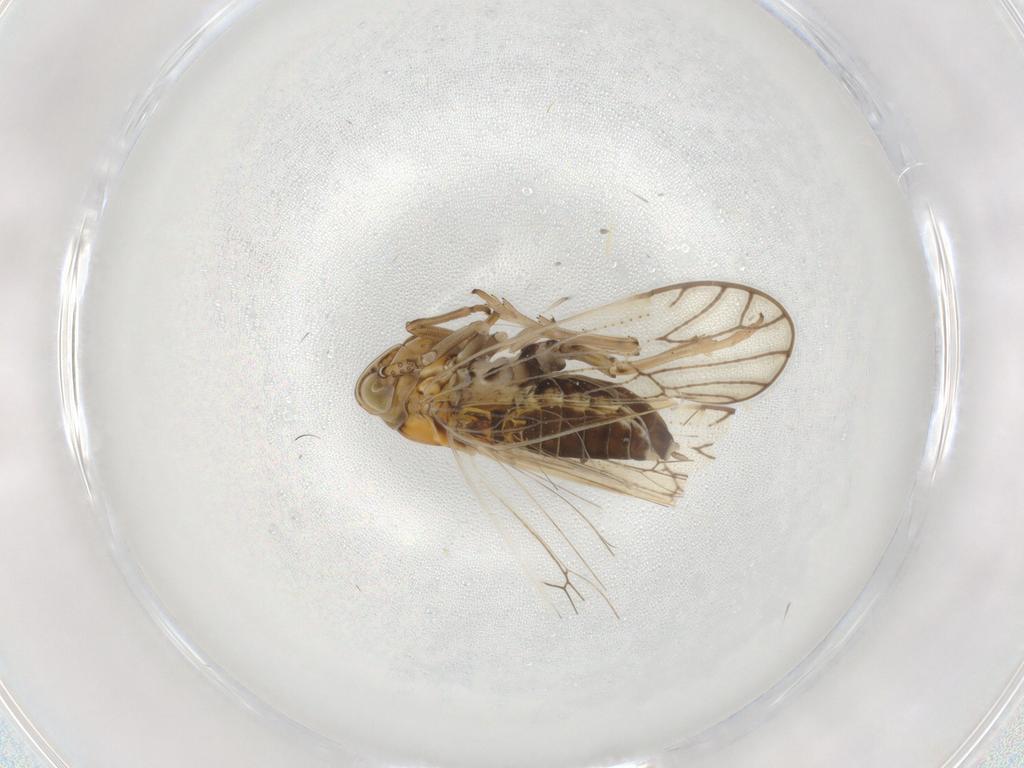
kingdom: Animalia
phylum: Arthropoda
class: Insecta
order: Hemiptera
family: Delphacidae
